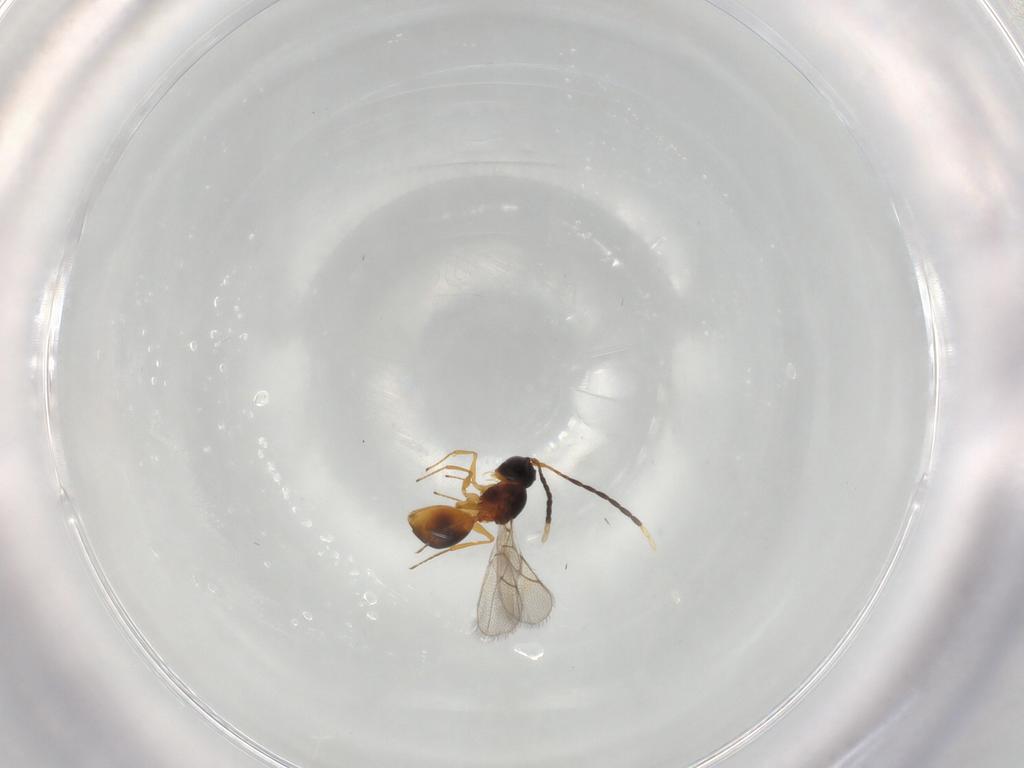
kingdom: Animalia
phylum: Arthropoda
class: Insecta
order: Hymenoptera
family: Figitidae
